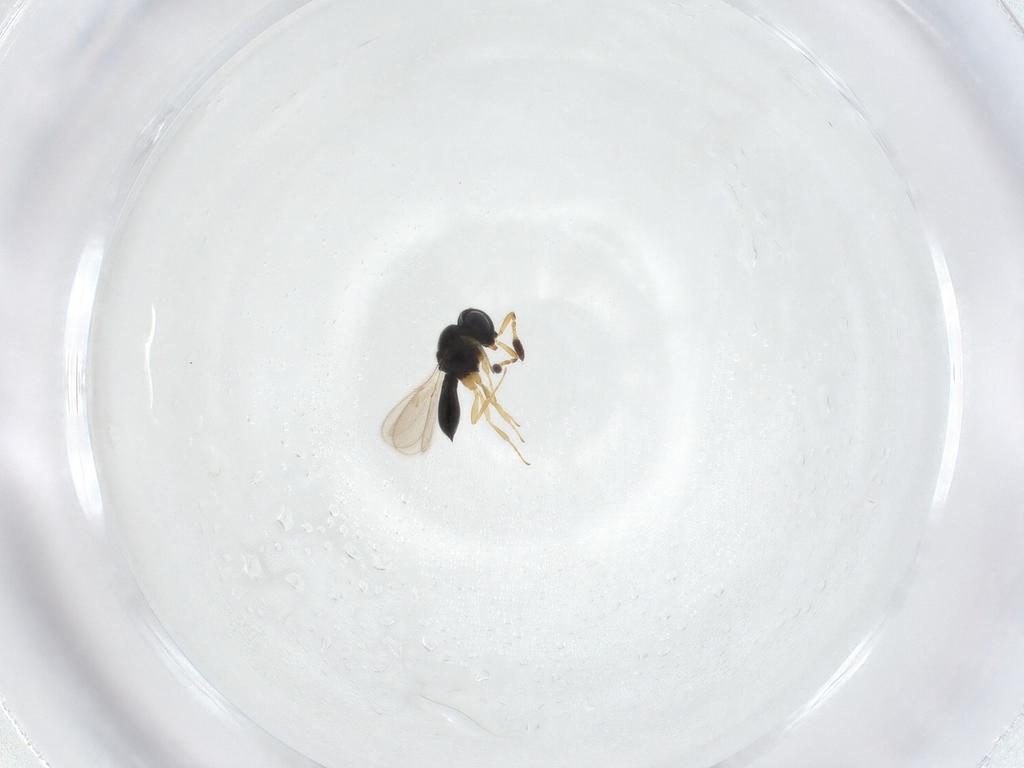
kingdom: Animalia
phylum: Arthropoda
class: Insecta
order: Hymenoptera
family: Scelionidae
